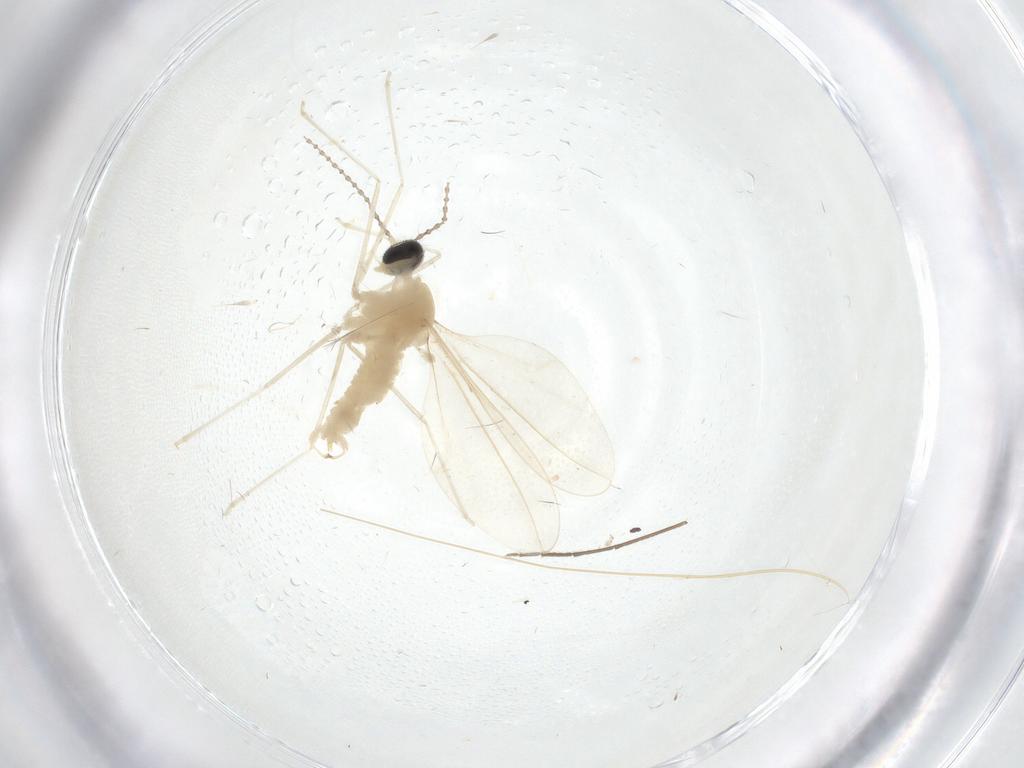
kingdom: Animalia
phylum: Arthropoda
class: Insecta
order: Diptera
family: Cecidomyiidae
